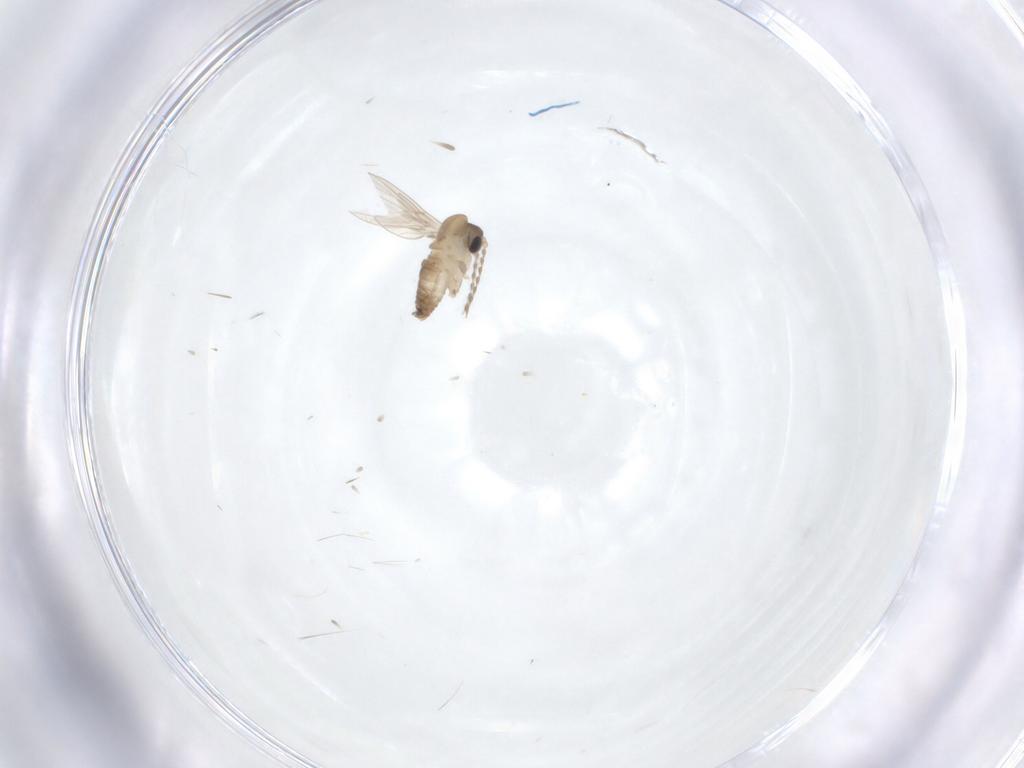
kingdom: Animalia
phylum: Arthropoda
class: Insecta
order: Diptera
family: Psychodidae
